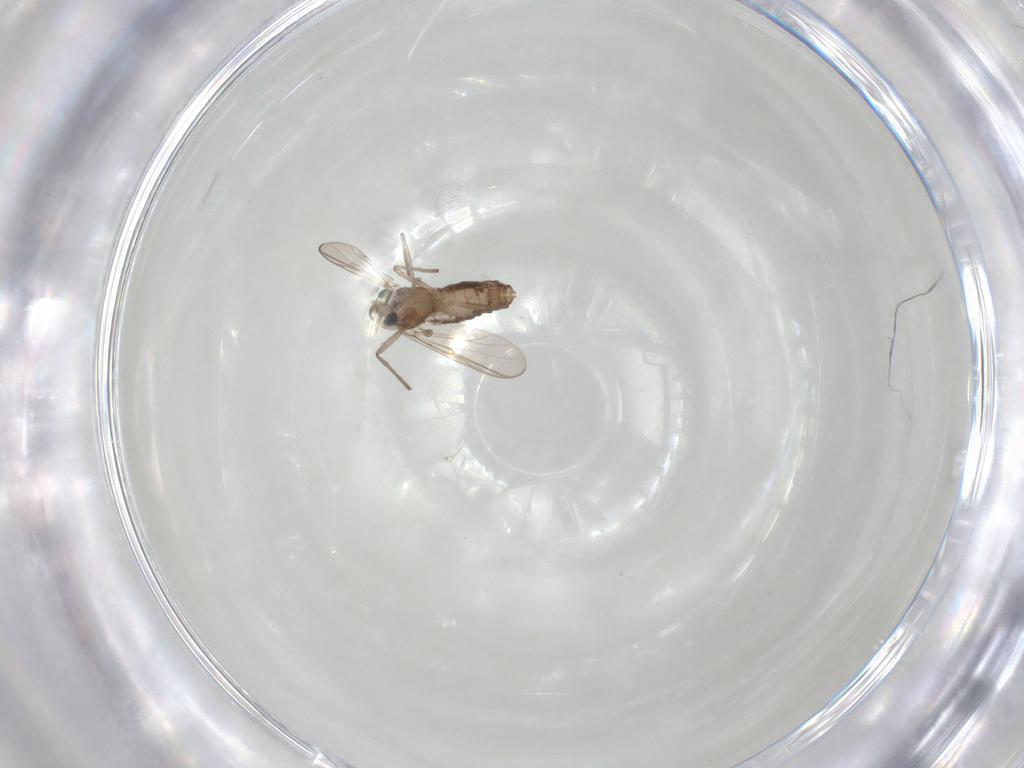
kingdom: Animalia
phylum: Arthropoda
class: Insecta
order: Diptera
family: Chironomidae
